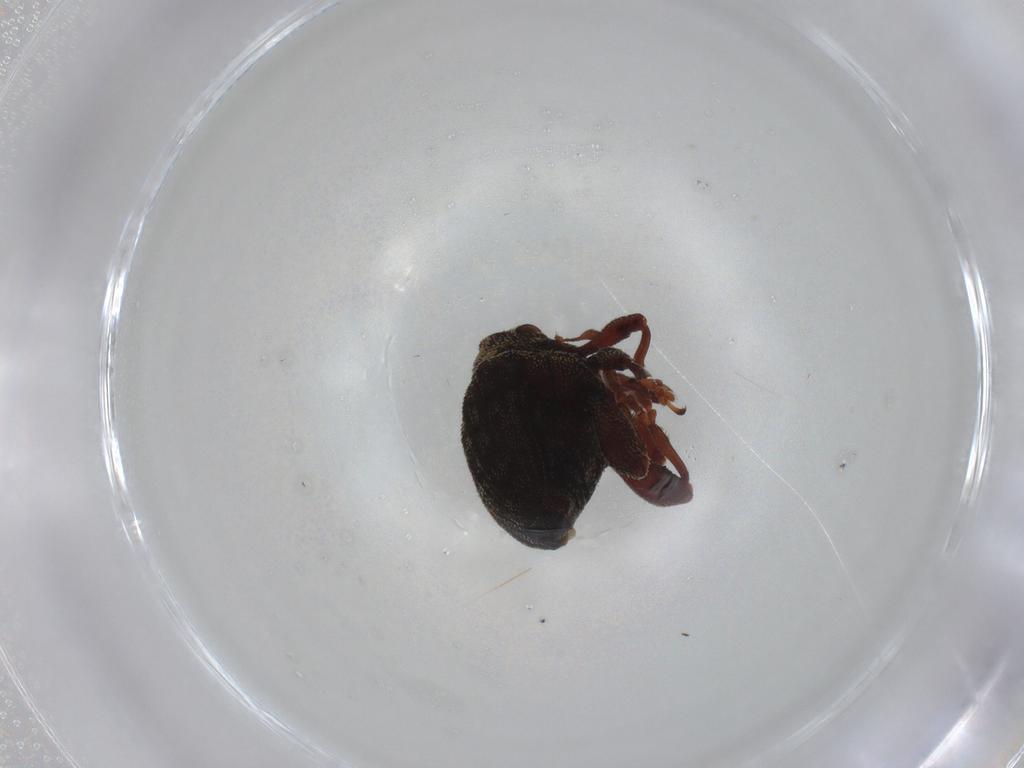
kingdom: Animalia
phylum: Arthropoda
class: Insecta
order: Coleoptera
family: Curculionidae
